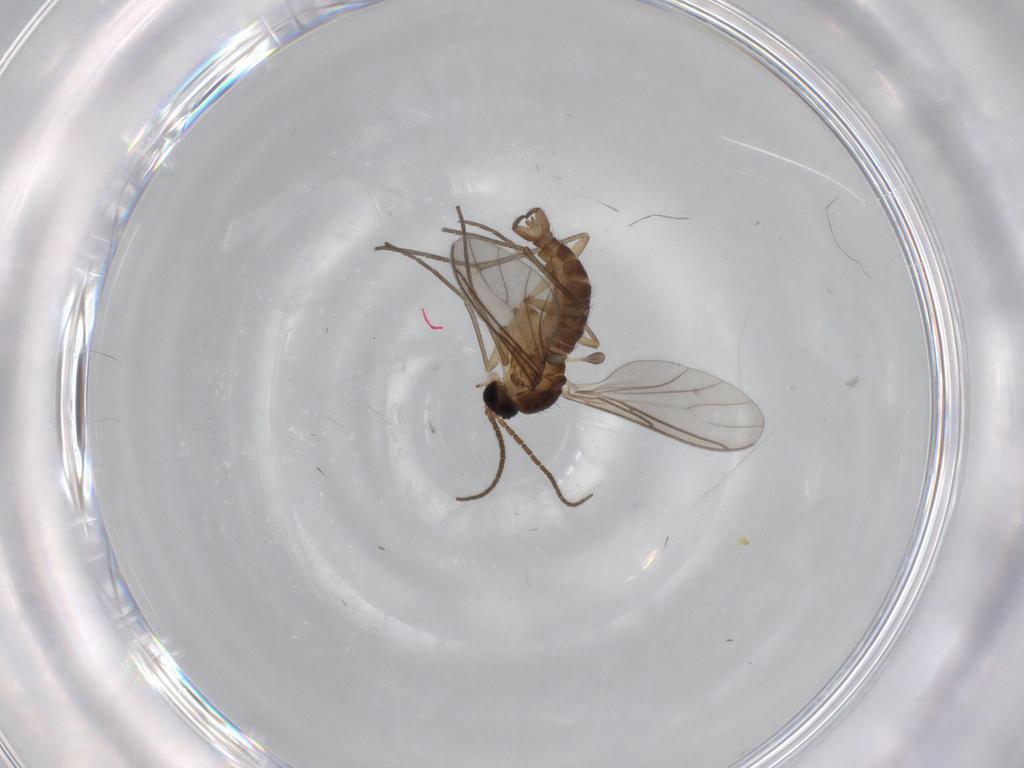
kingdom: Animalia
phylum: Arthropoda
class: Insecta
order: Diptera
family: Sciaridae
